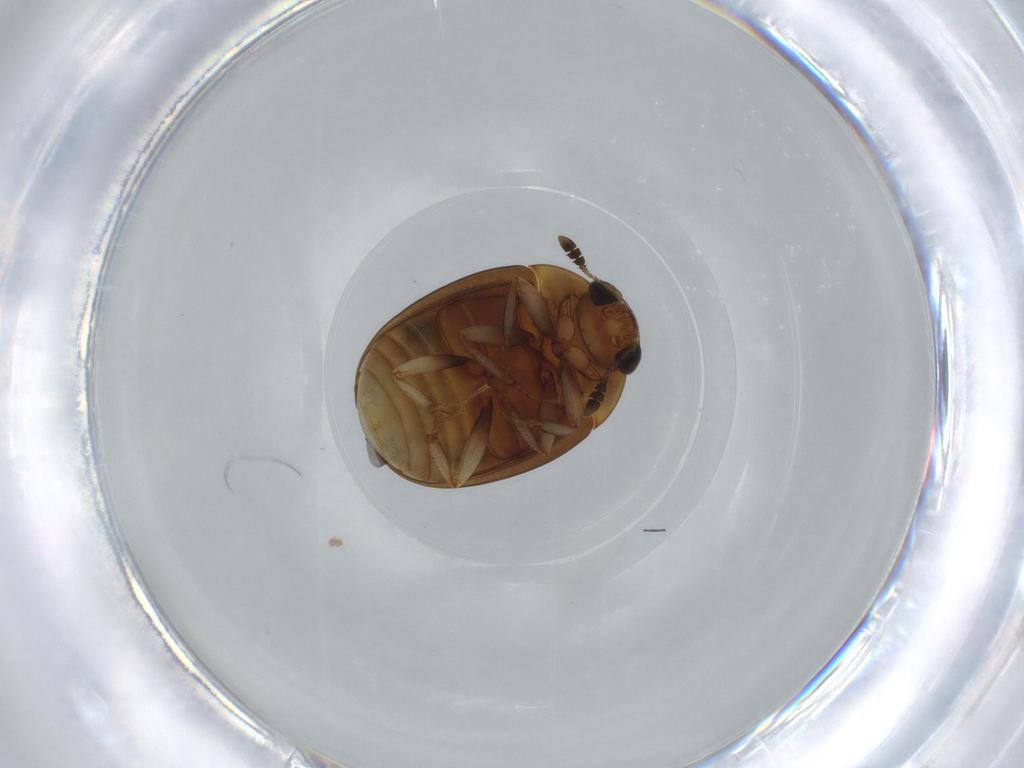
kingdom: Animalia
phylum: Arthropoda
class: Insecta
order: Coleoptera
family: Nitidulidae
